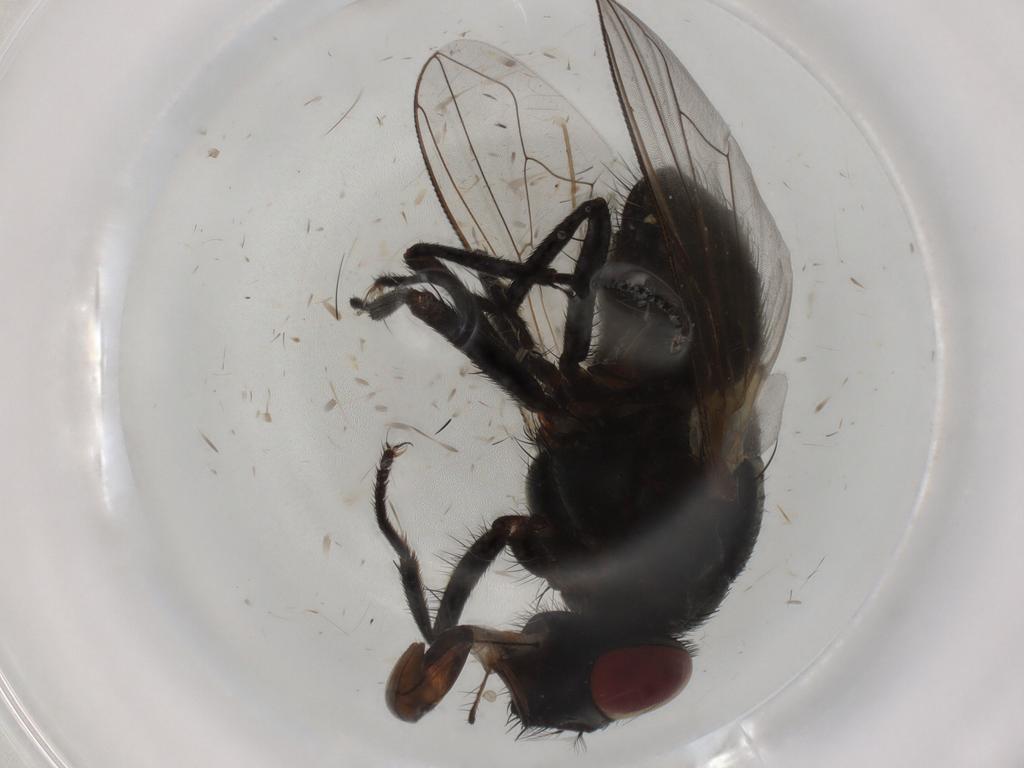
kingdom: Animalia
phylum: Arthropoda
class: Insecta
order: Diptera
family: Muscidae
